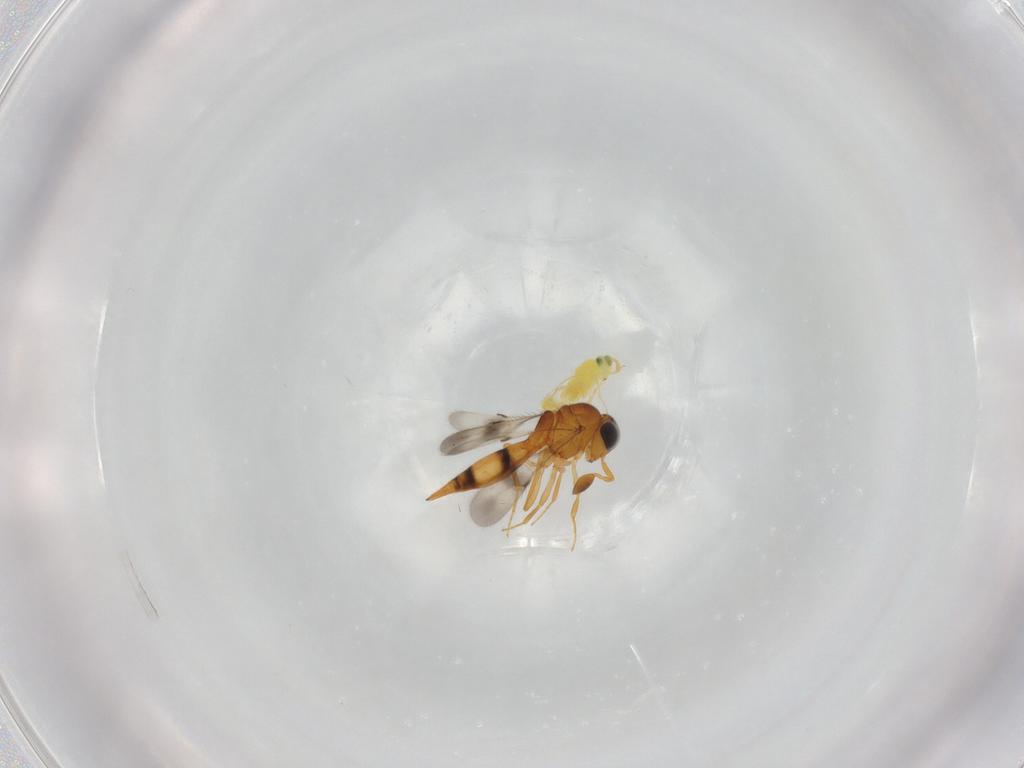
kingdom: Animalia
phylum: Arthropoda
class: Insecta
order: Hymenoptera
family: Scelionidae
